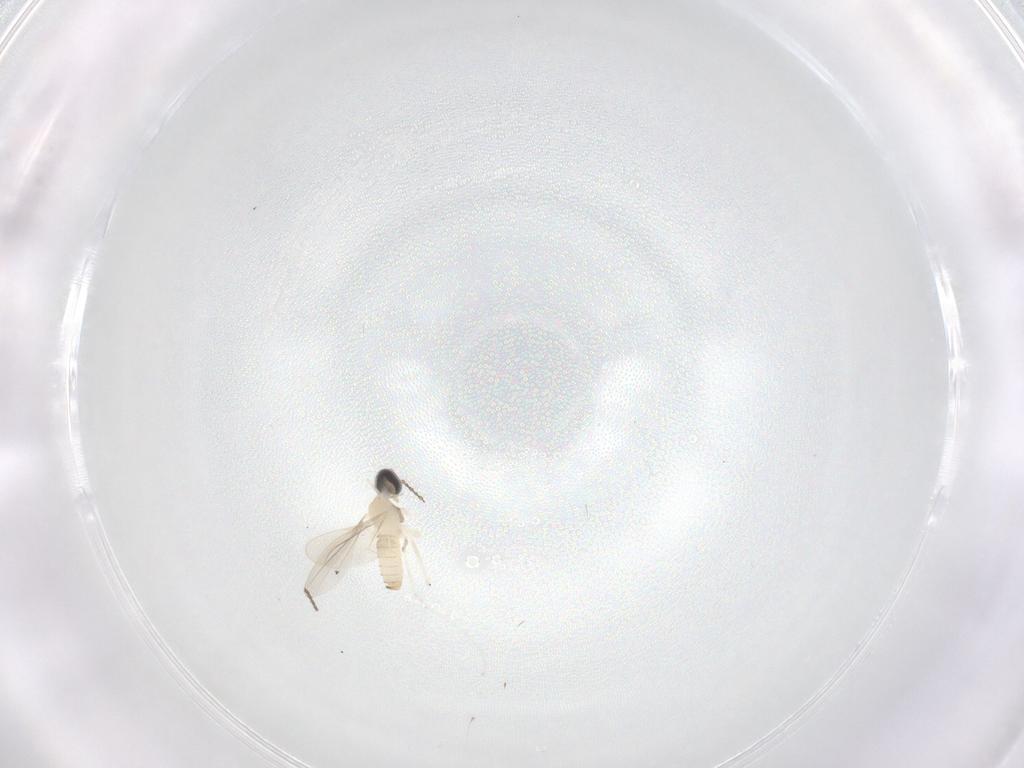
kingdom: Animalia
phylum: Arthropoda
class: Insecta
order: Diptera
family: Cecidomyiidae
